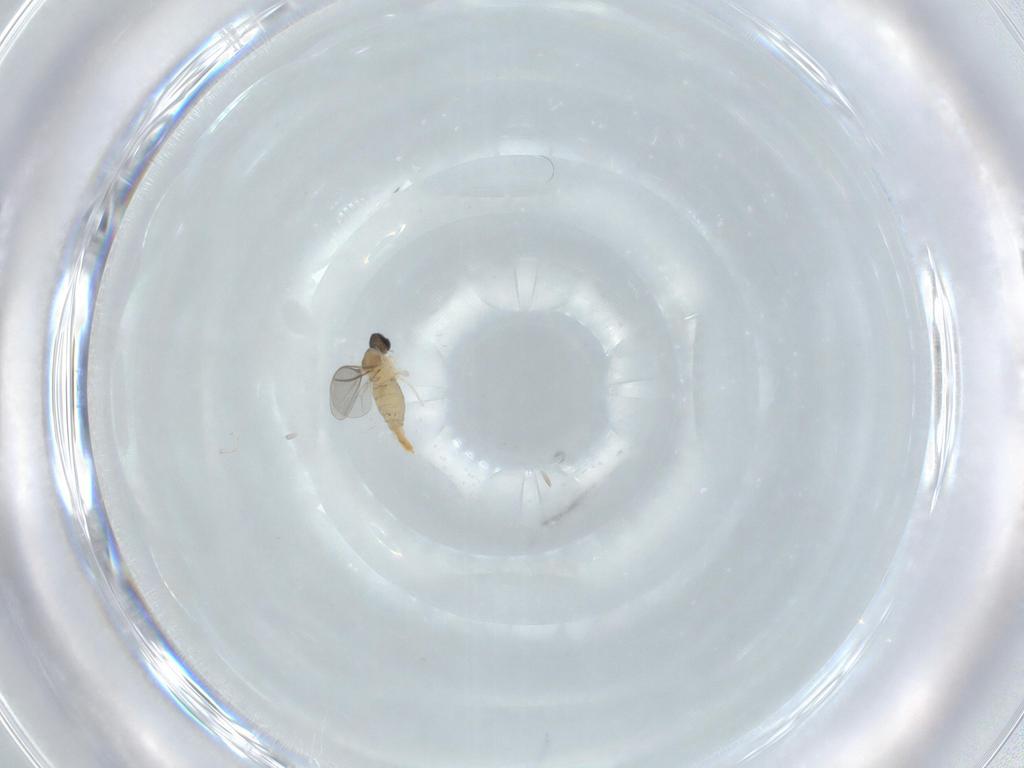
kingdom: Animalia
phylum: Arthropoda
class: Insecta
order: Diptera
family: Cecidomyiidae
